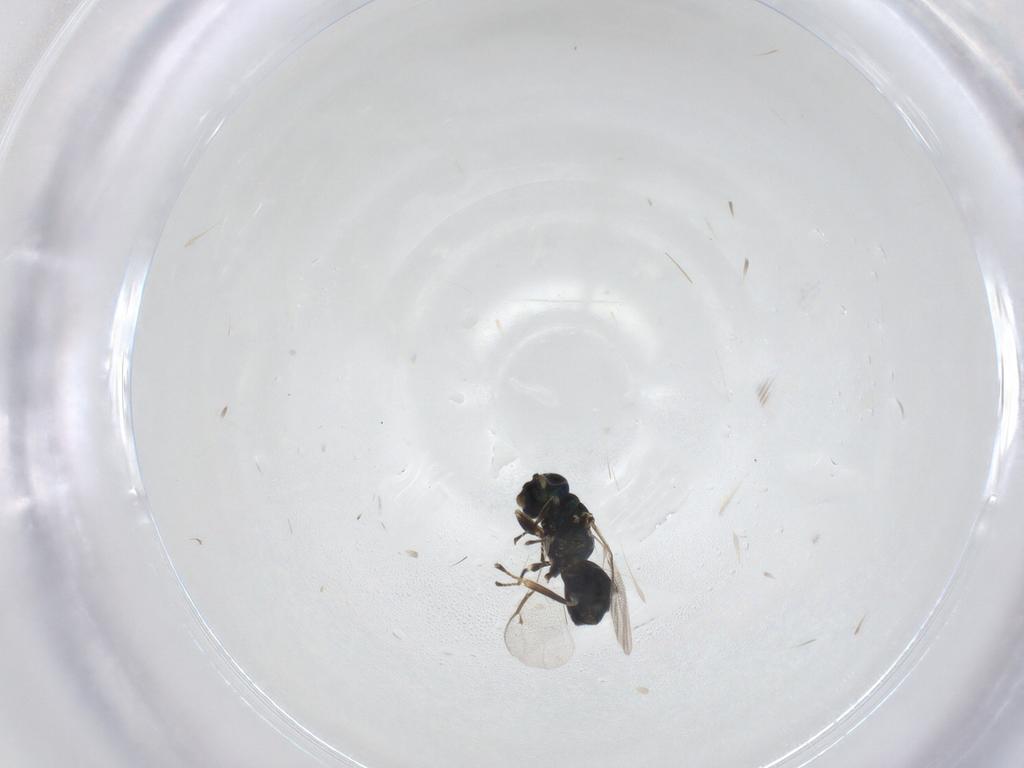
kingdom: Animalia
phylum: Arthropoda
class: Insecta
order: Hymenoptera
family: Eulophidae
